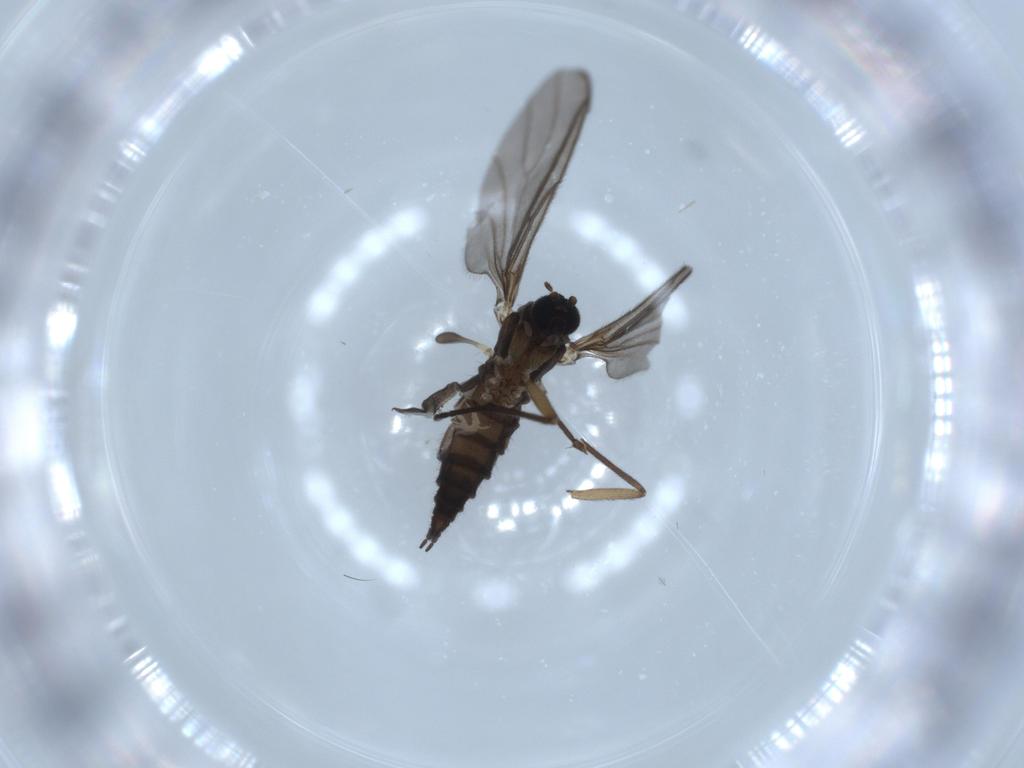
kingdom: Animalia
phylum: Arthropoda
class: Insecta
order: Diptera
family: Sciaridae
